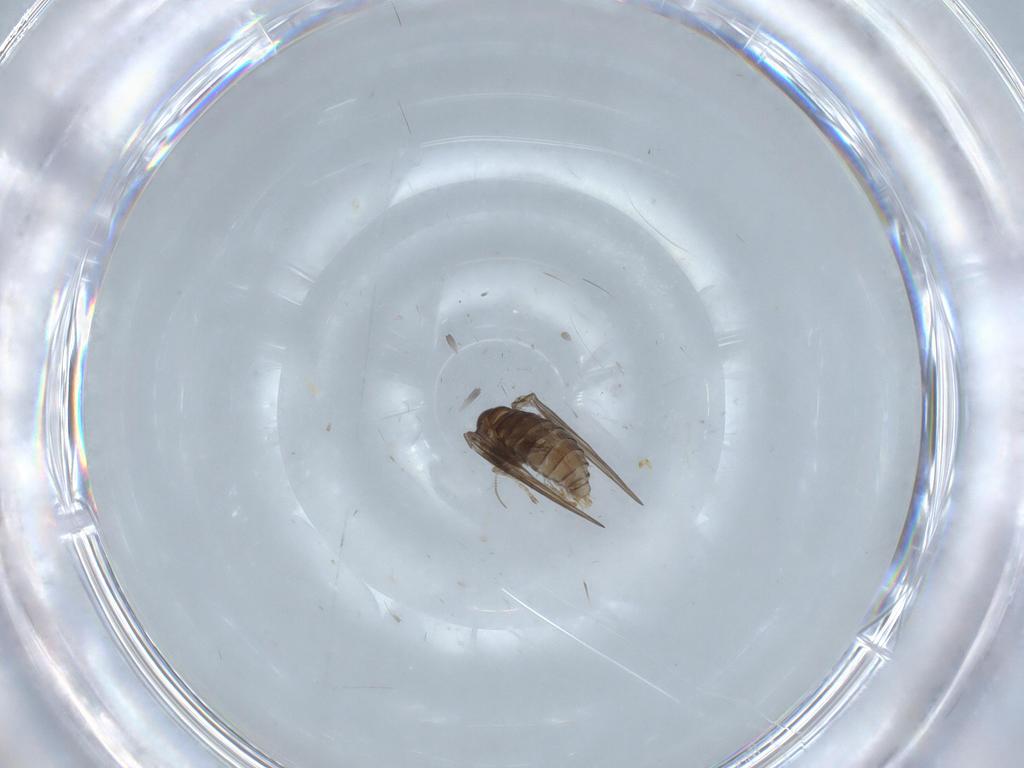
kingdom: Animalia
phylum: Arthropoda
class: Insecta
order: Diptera
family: Psychodidae
